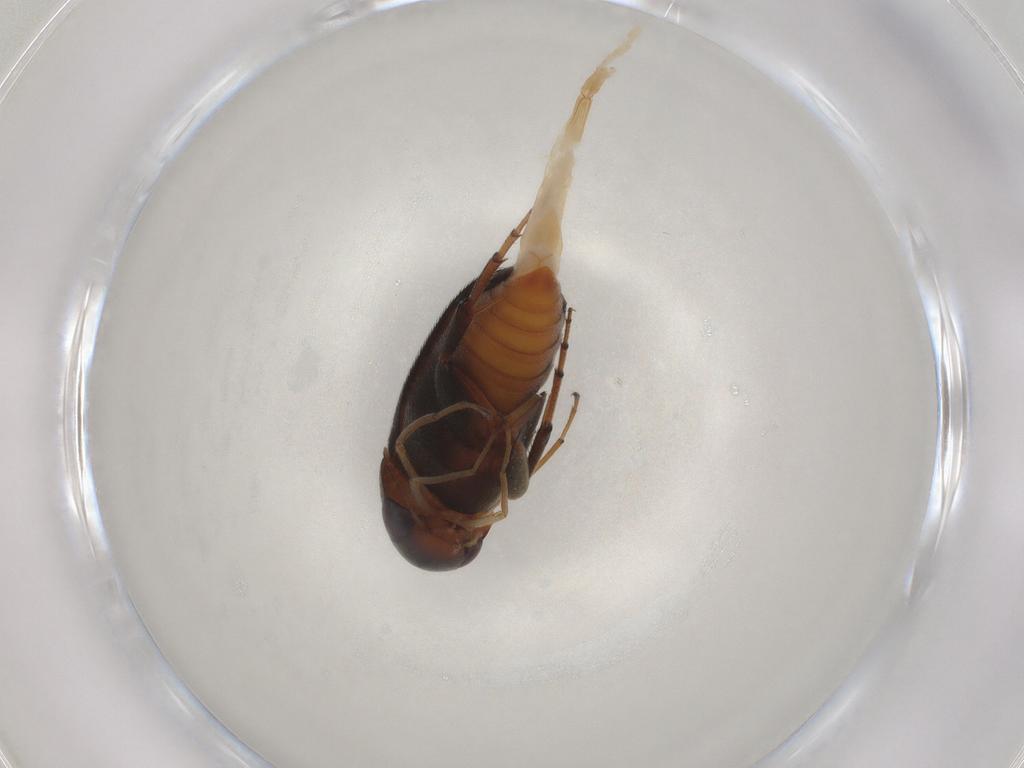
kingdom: Animalia
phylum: Arthropoda
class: Insecta
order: Coleoptera
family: Mordellidae
